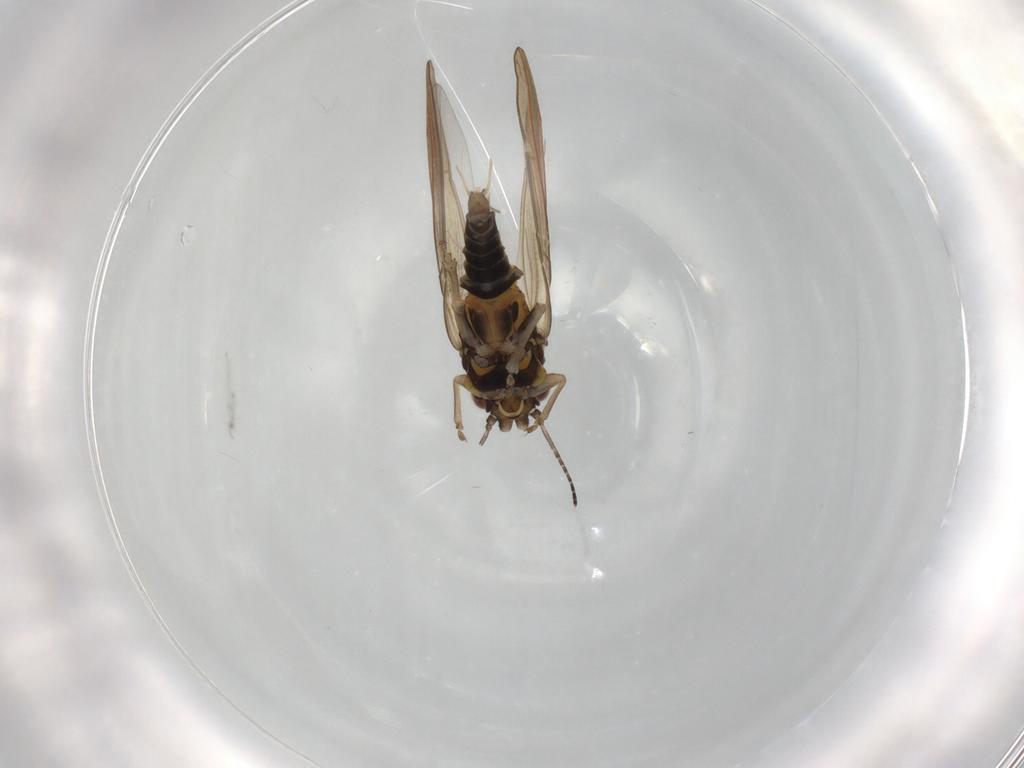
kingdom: Animalia
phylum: Arthropoda
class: Insecta
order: Hemiptera
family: Aphalaridae
